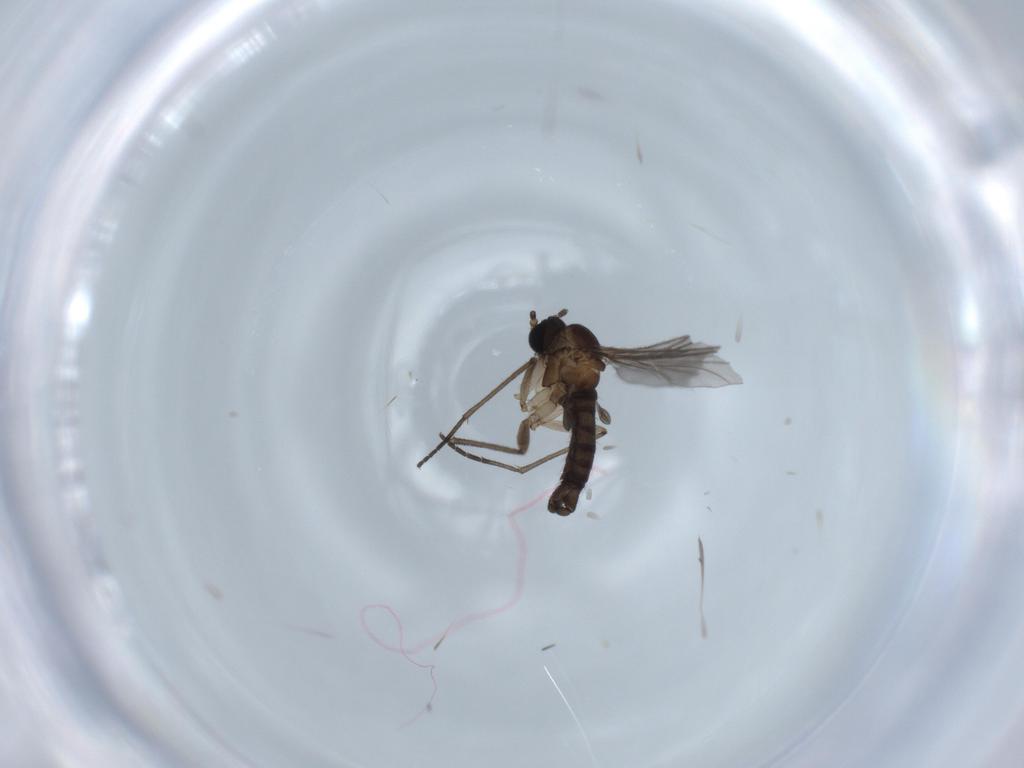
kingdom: Animalia
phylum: Arthropoda
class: Insecta
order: Diptera
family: Sciaridae
